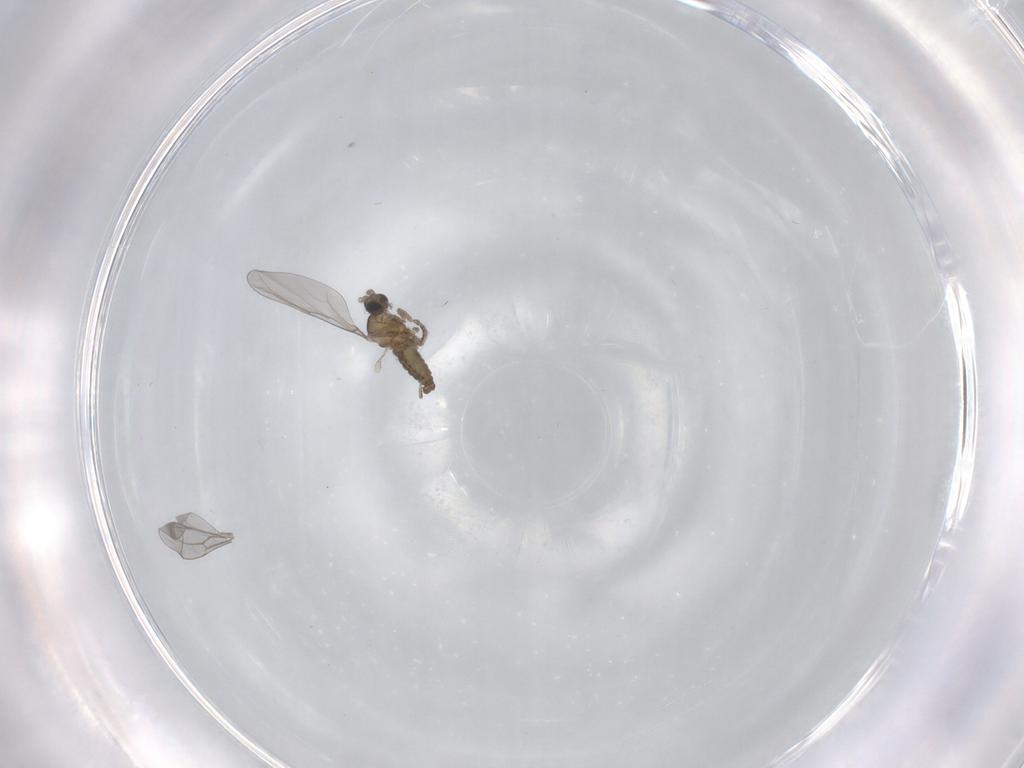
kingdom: Animalia
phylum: Arthropoda
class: Insecta
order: Diptera
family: Cecidomyiidae
